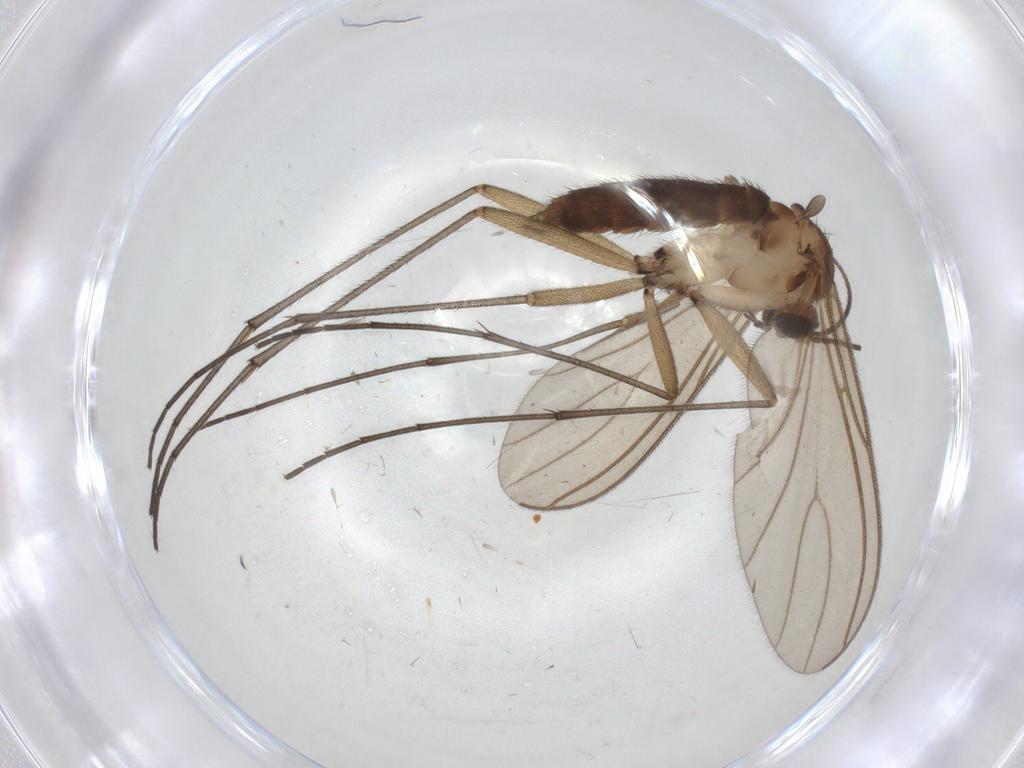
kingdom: Animalia
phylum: Arthropoda
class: Insecta
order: Diptera
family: Sciaridae
